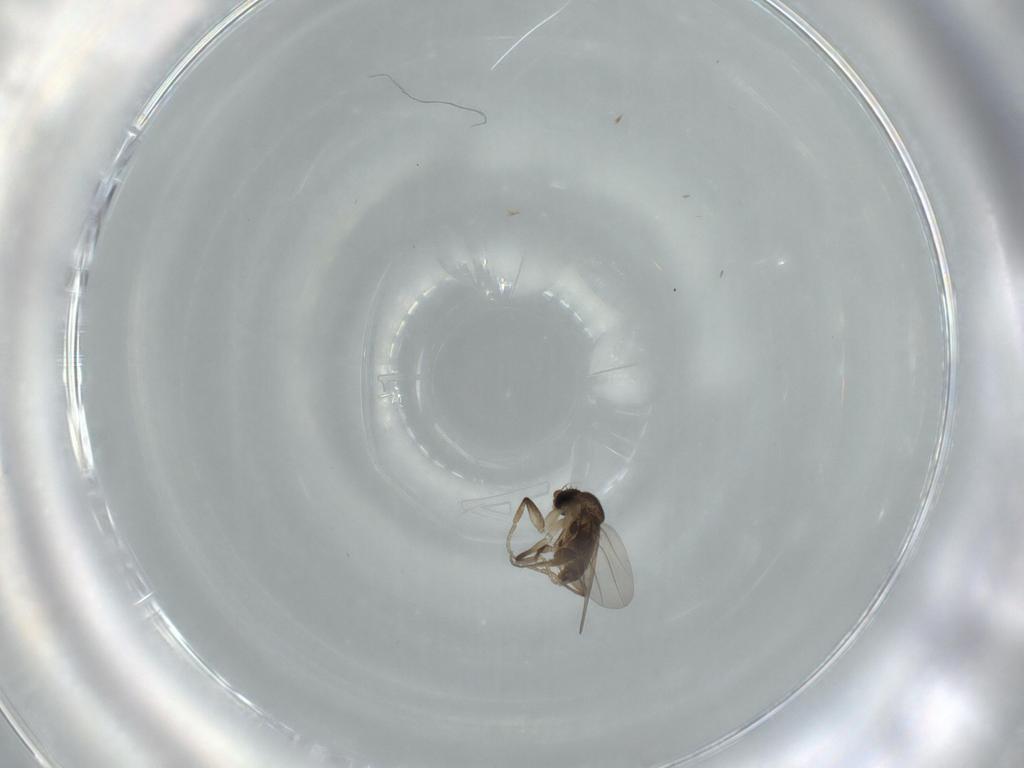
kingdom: Animalia
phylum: Arthropoda
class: Insecta
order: Diptera
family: Phoridae
